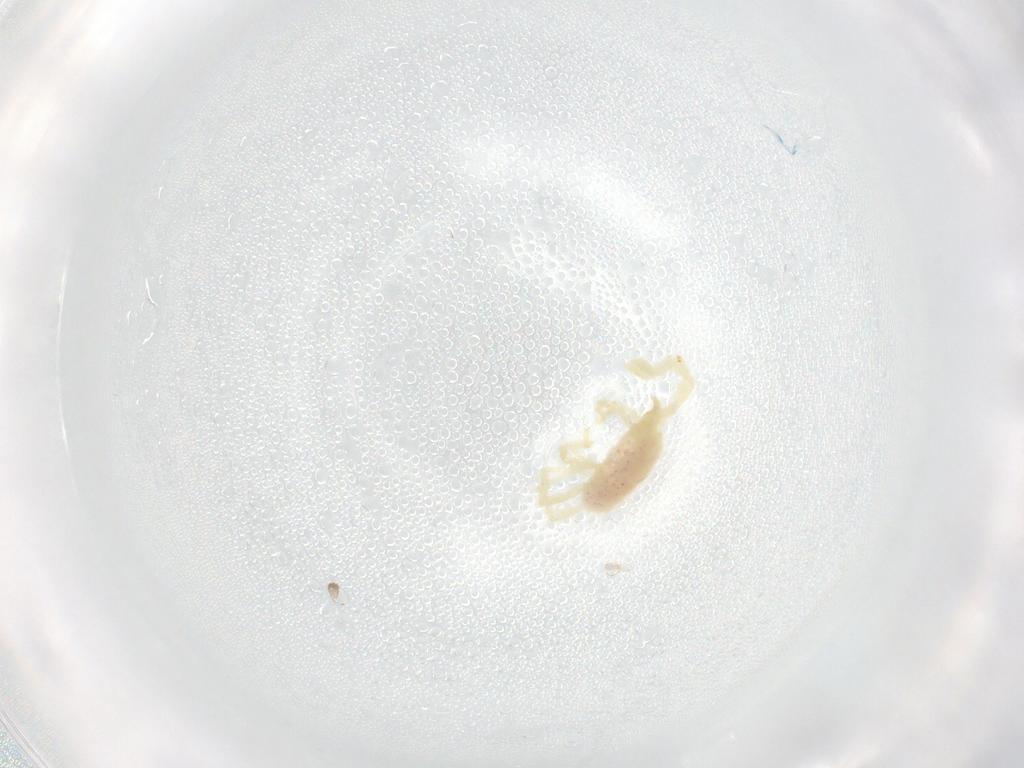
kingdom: Animalia
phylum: Arthropoda
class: Arachnida
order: Trombidiformes
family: Erythraeidae
